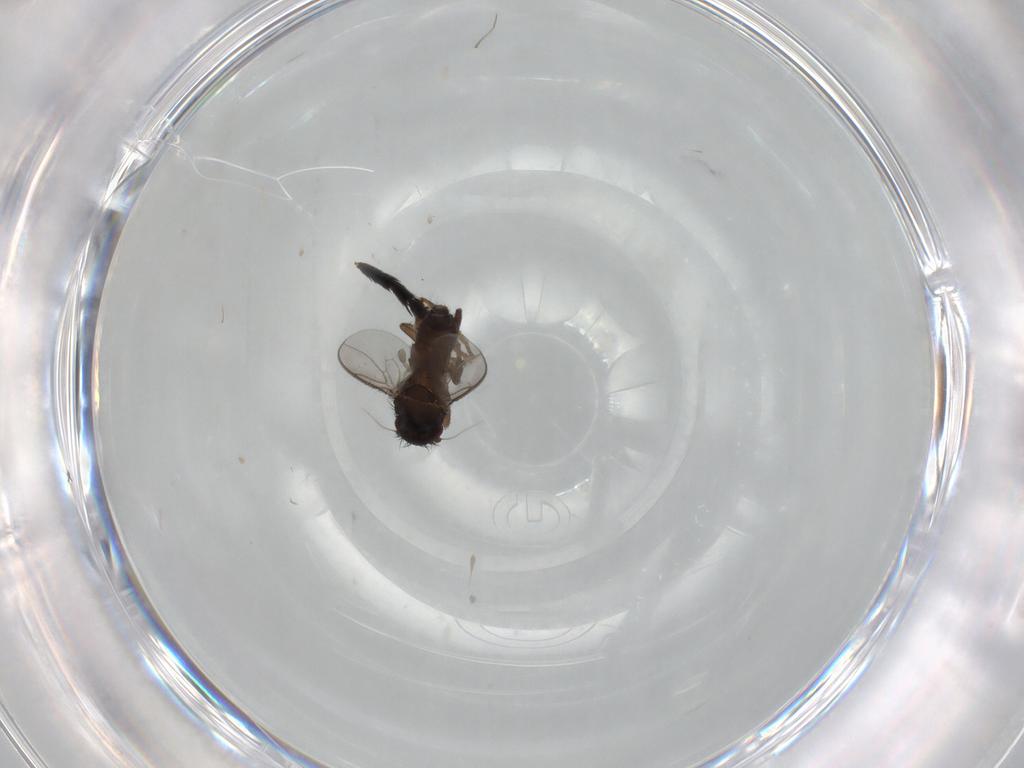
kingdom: Animalia
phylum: Arthropoda
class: Insecta
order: Diptera
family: Sphaeroceridae
